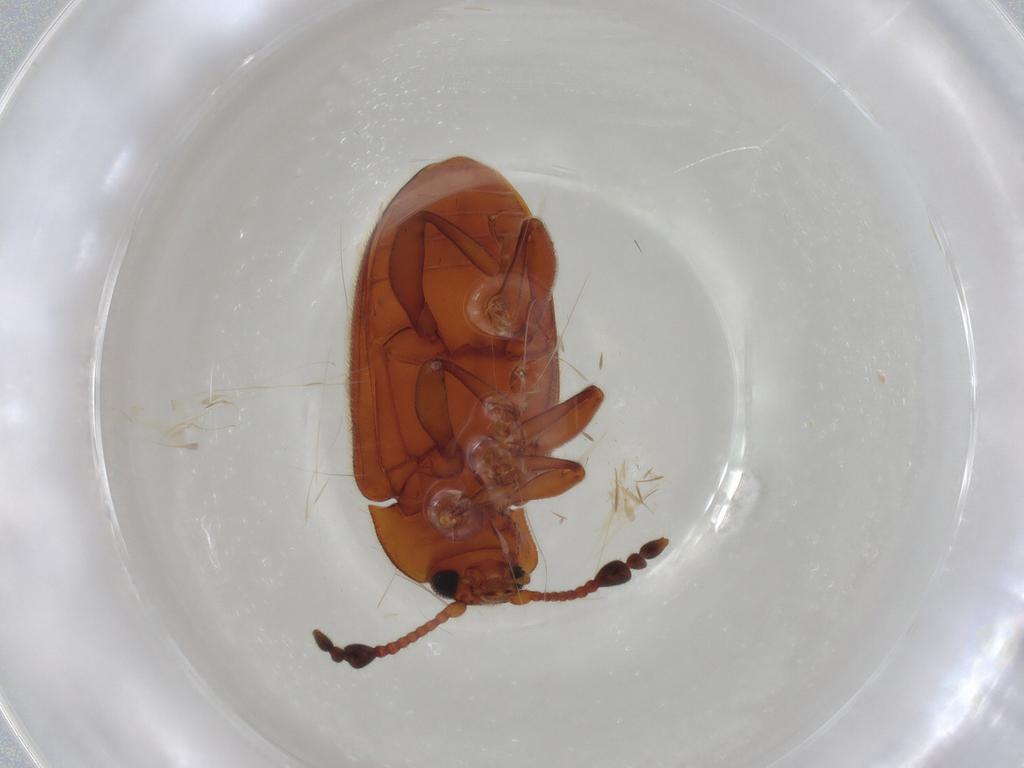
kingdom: Animalia
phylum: Arthropoda
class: Insecta
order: Coleoptera
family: Endomychidae
